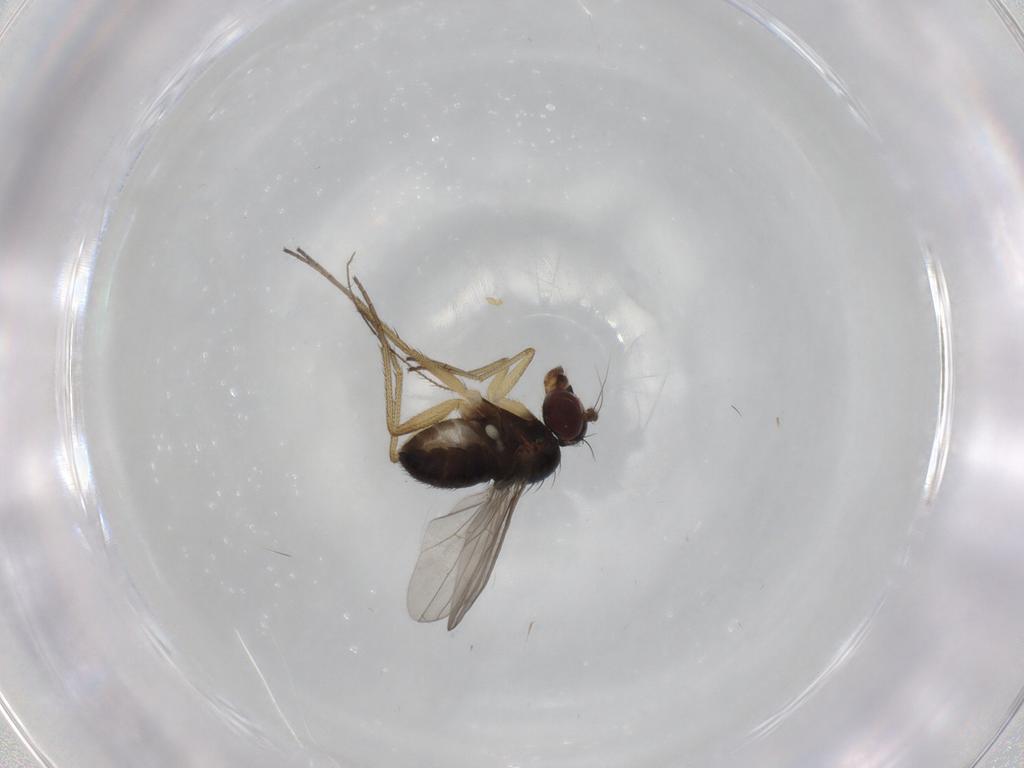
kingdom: Animalia
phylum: Arthropoda
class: Insecta
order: Diptera
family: Dolichopodidae
